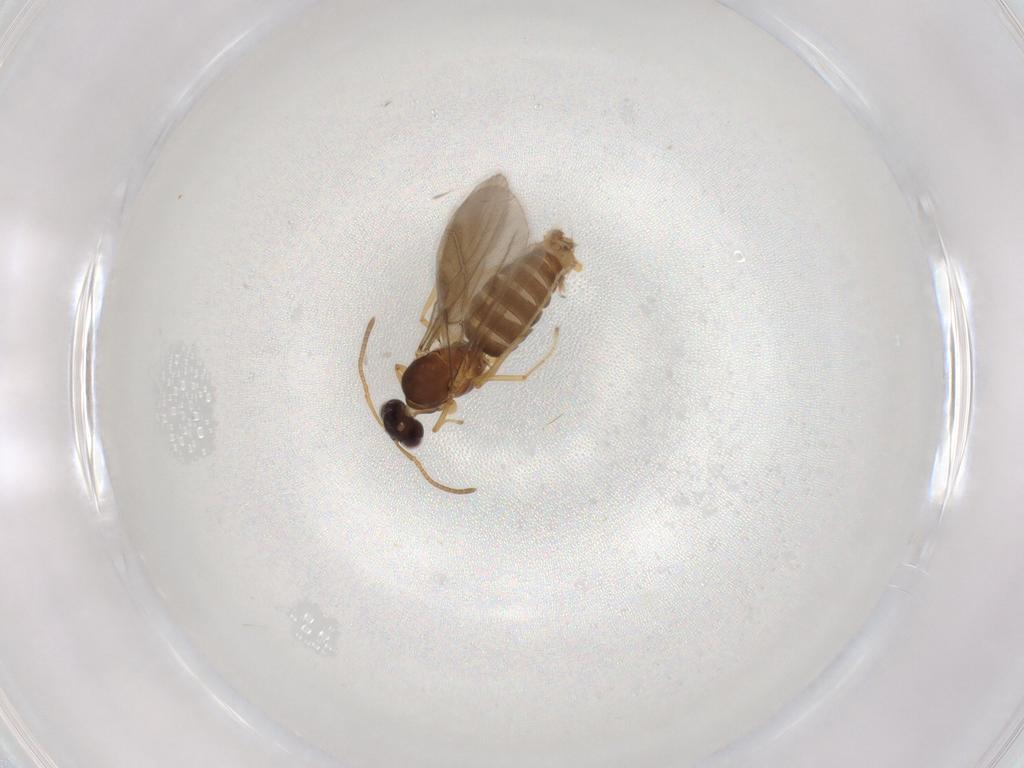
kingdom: Animalia
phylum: Arthropoda
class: Insecta
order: Hymenoptera
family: Formicidae
